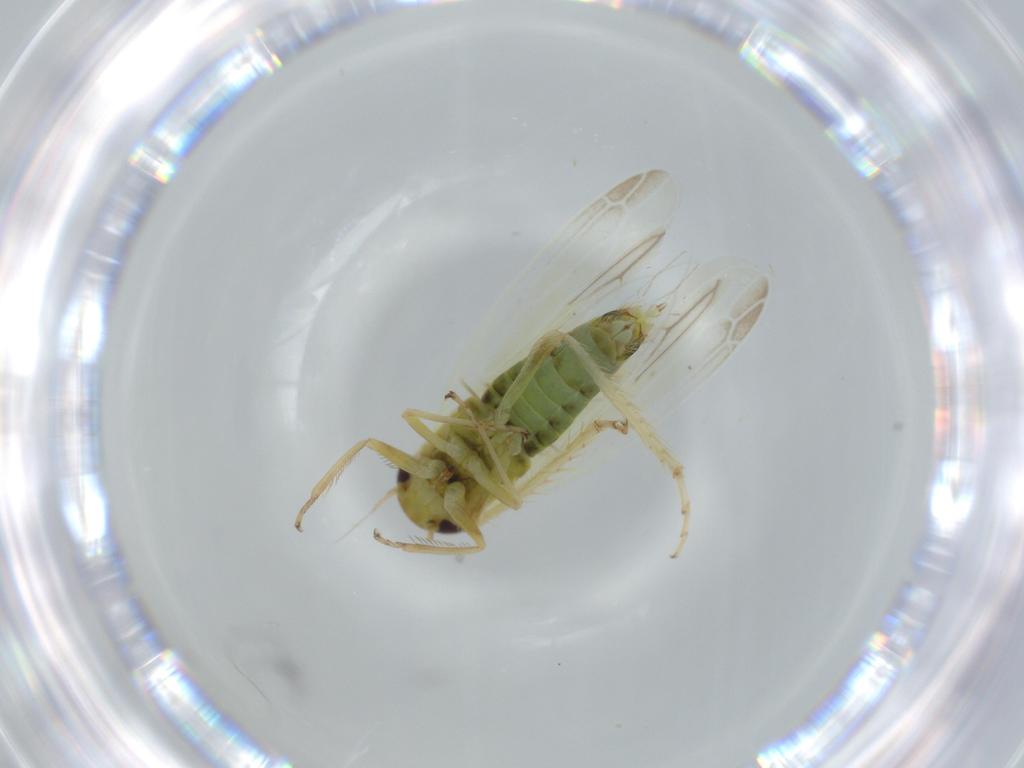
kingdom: Animalia
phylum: Arthropoda
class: Insecta
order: Hemiptera
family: Cicadellidae
